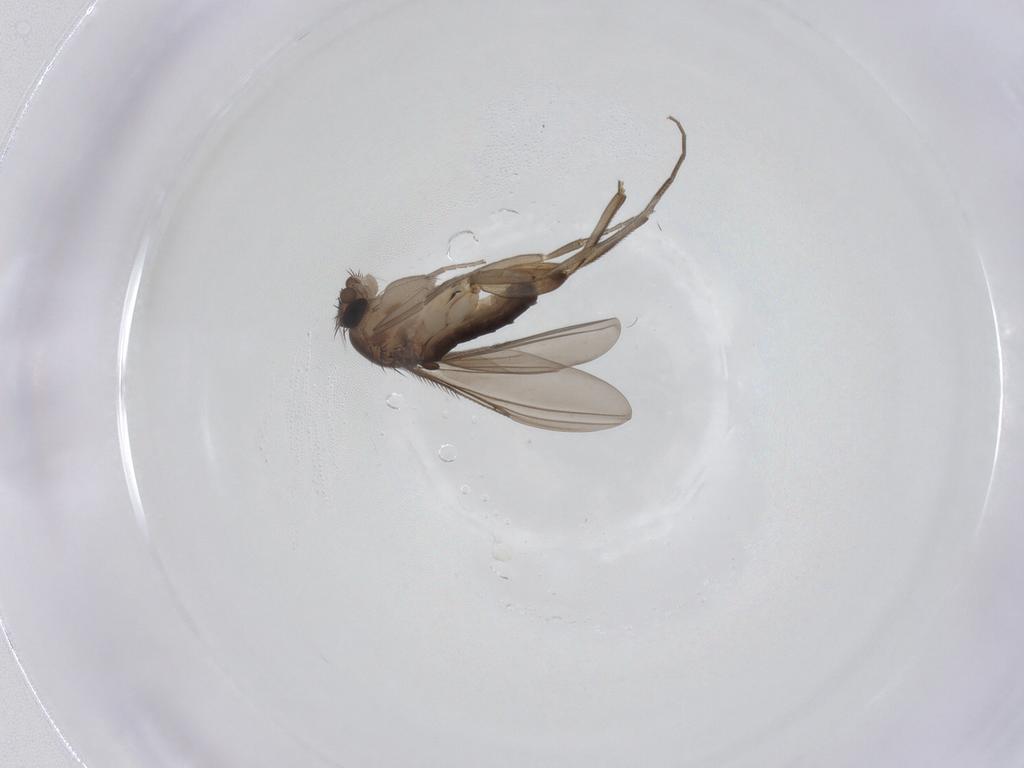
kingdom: Animalia
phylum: Arthropoda
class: Insecta
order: Diptera
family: Phoridae
